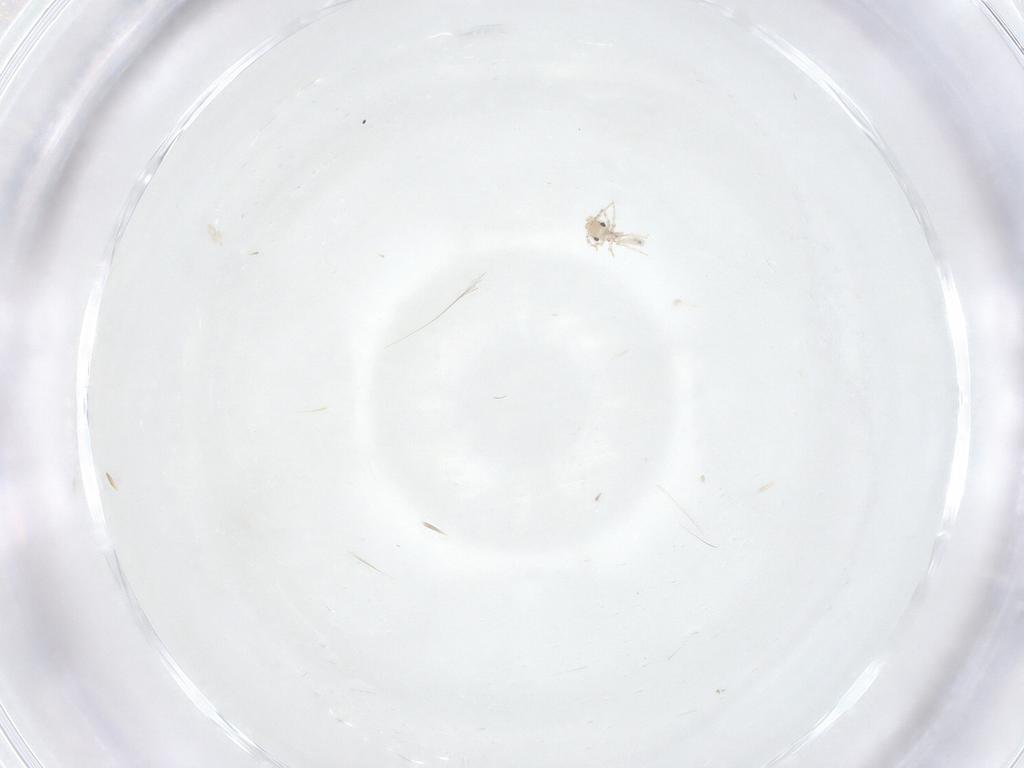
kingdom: Animalia
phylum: Arthropoda
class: Insecta
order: Psocodea
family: Lepidopsocidae
